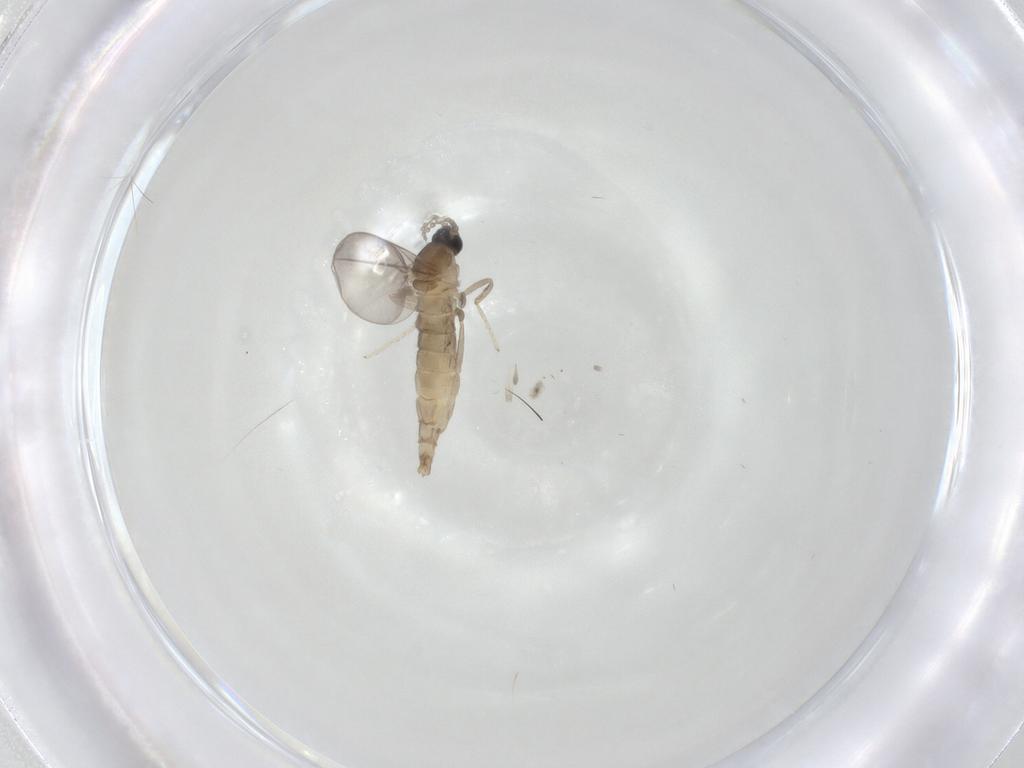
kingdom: Animalia
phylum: Arthropoda
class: Insecta
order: Diptera
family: Cecidomyiidae
